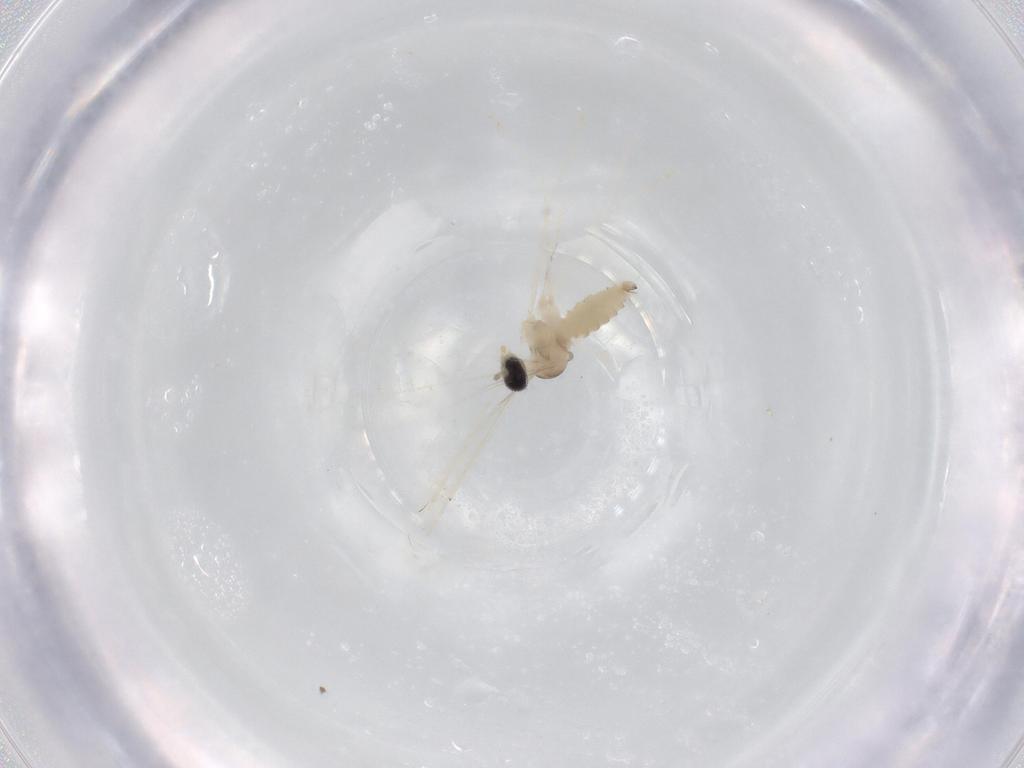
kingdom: Animalia
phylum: Arthropoda
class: Insecta
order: Diptera
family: Cecidomyiidae
